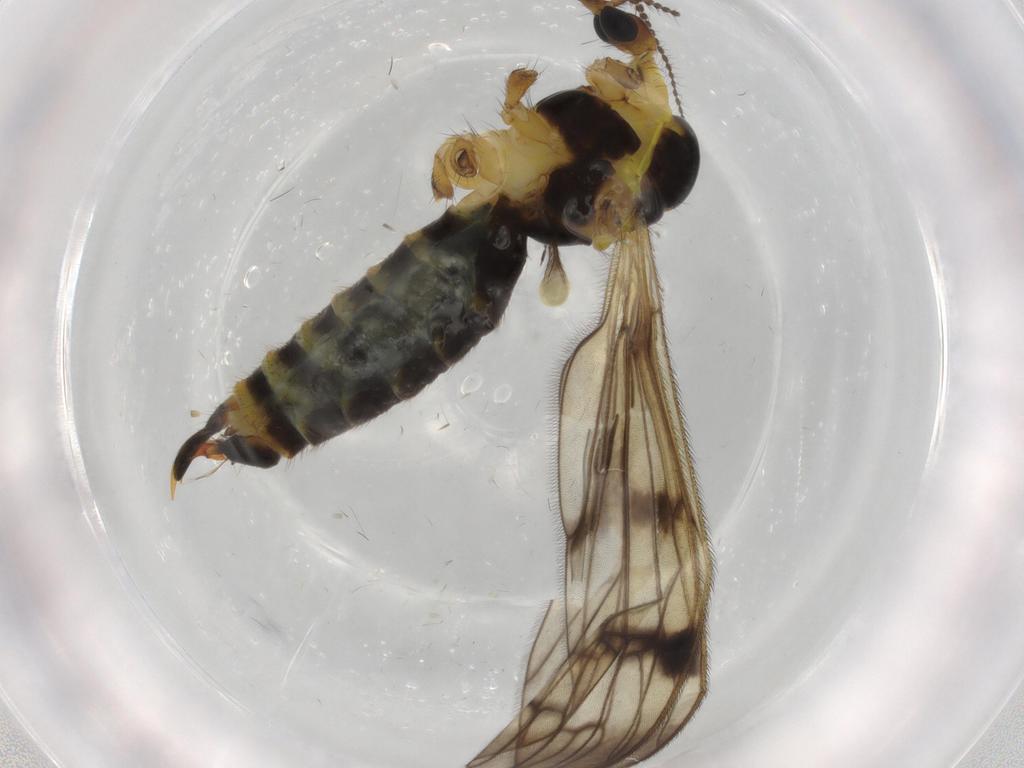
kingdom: Animalia
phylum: Arthropoda
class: Insecta
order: Diptera
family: Limoniidae
